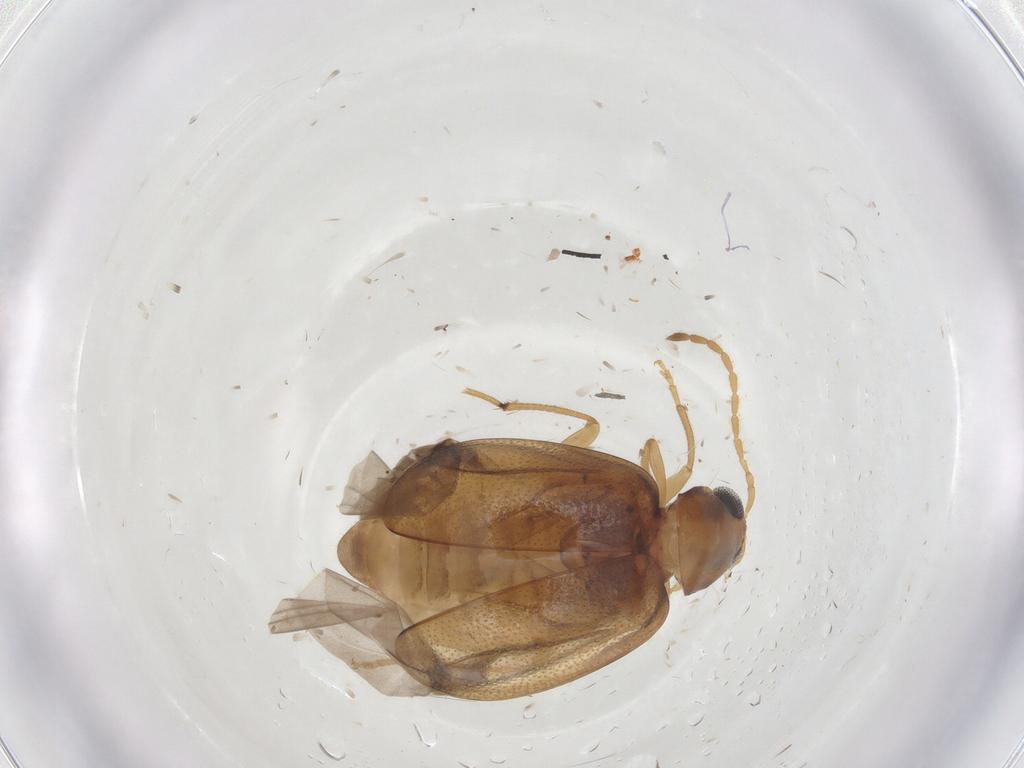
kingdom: Animalia
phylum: Arthropoda
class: Insecta
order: Coleoptera
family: Chrysomelidae
